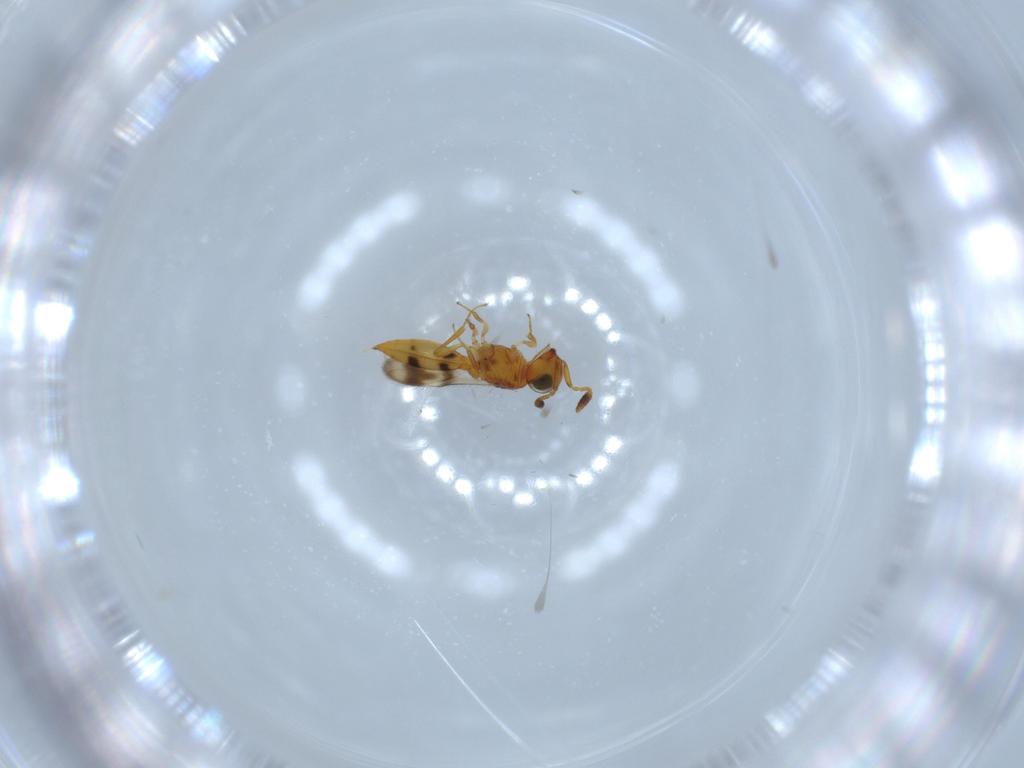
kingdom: Animalia
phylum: Arthropoda
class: Insecta
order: Hymenoptera
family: Scelionidae
